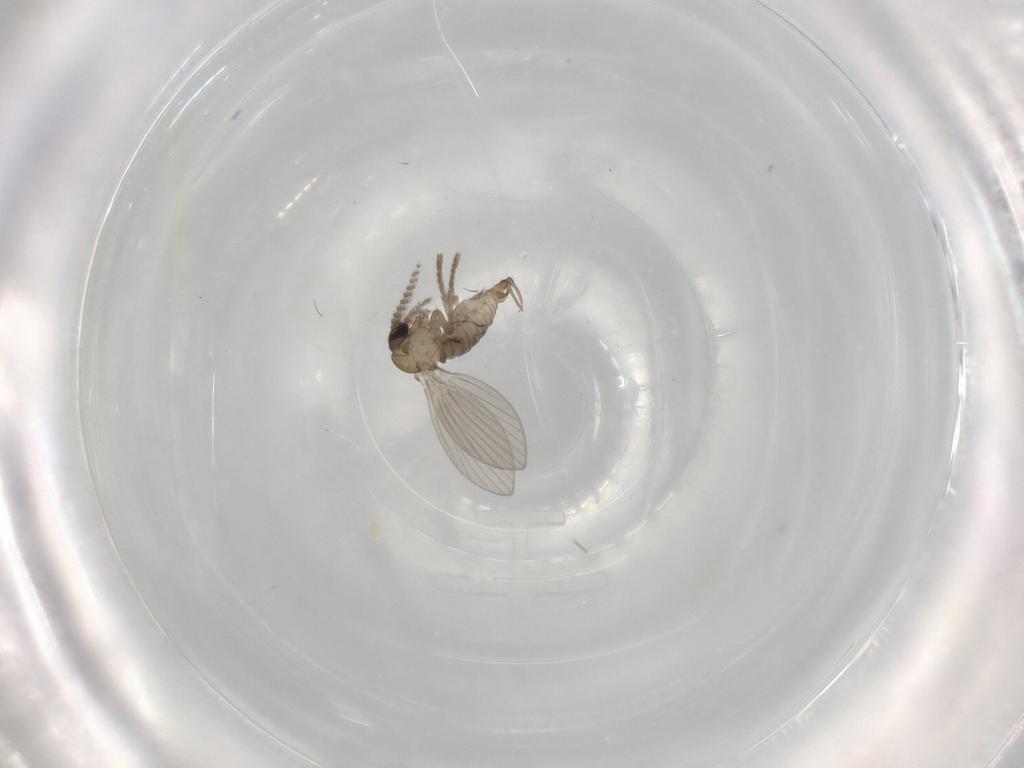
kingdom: Animalia
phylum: Arthropoda
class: Insecta
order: Diptera
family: Psychodidae
